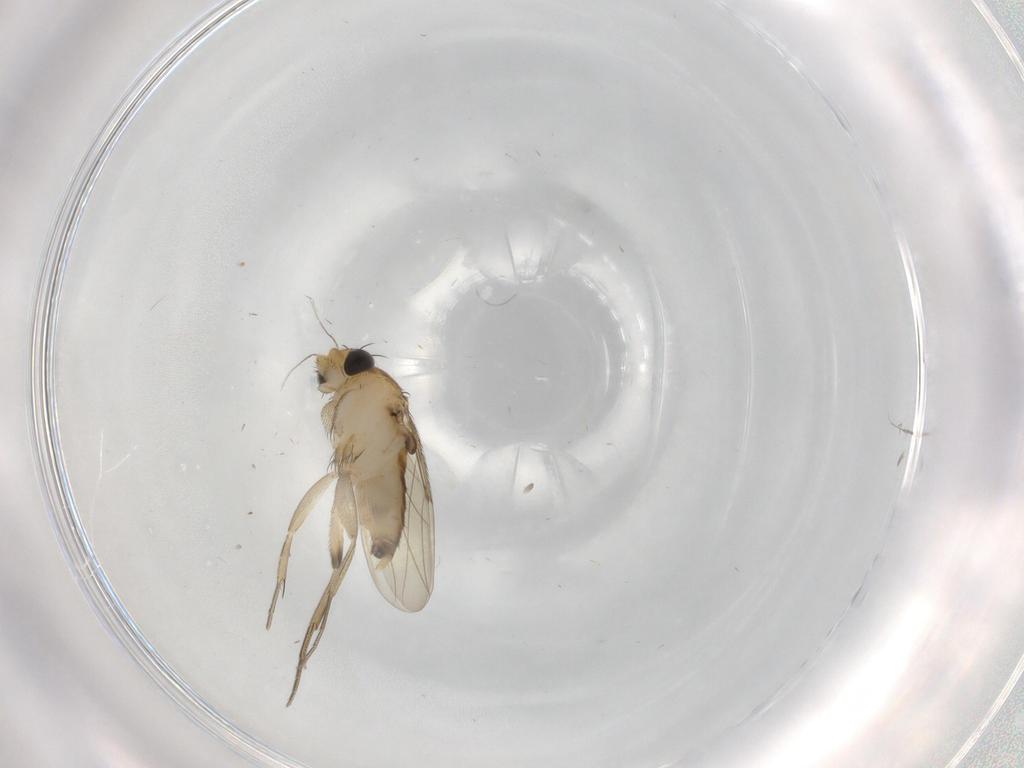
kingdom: Animalia
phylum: Arthropoda
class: Insecta
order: Diptera
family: Phoridae
